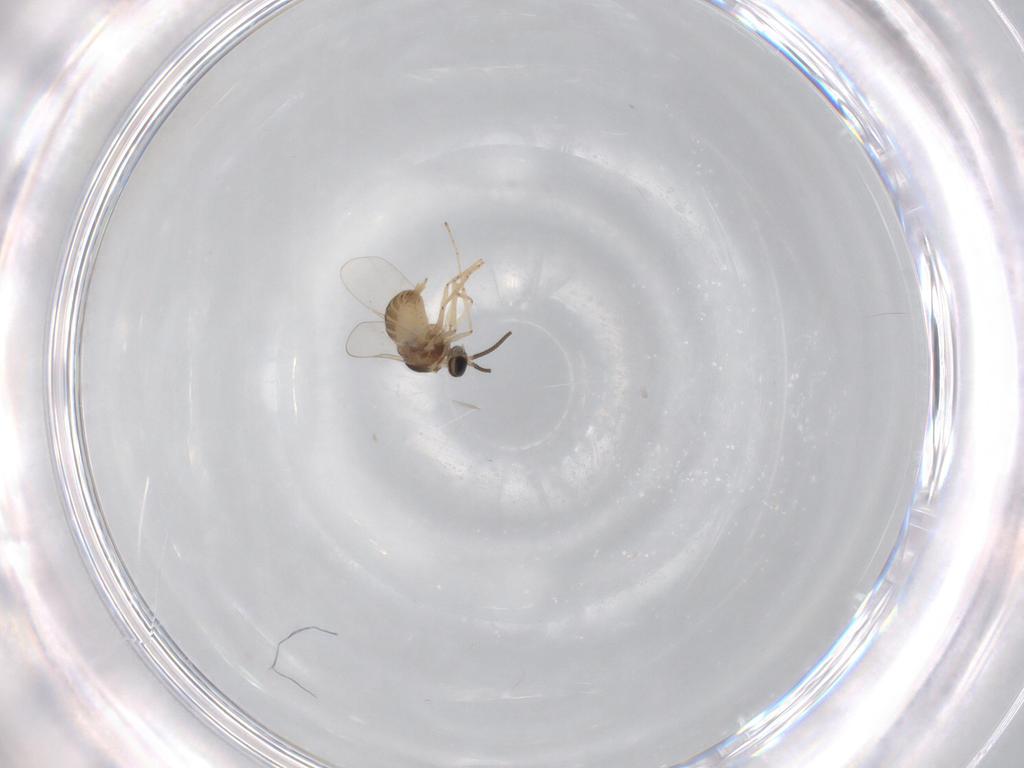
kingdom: Animalia
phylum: Arthropoda
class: Insecta
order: Diptera
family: Cecidomyiidae
